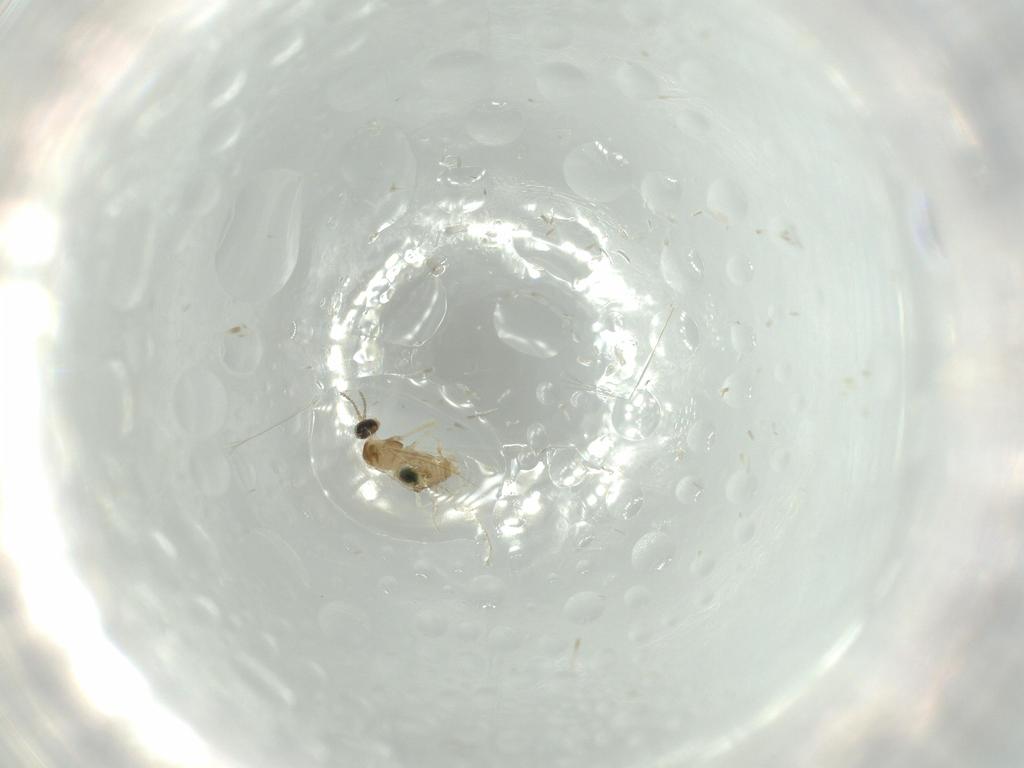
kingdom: Animalia
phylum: Arthropoda
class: Insecta
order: Diptera
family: Cecidomyiidae
